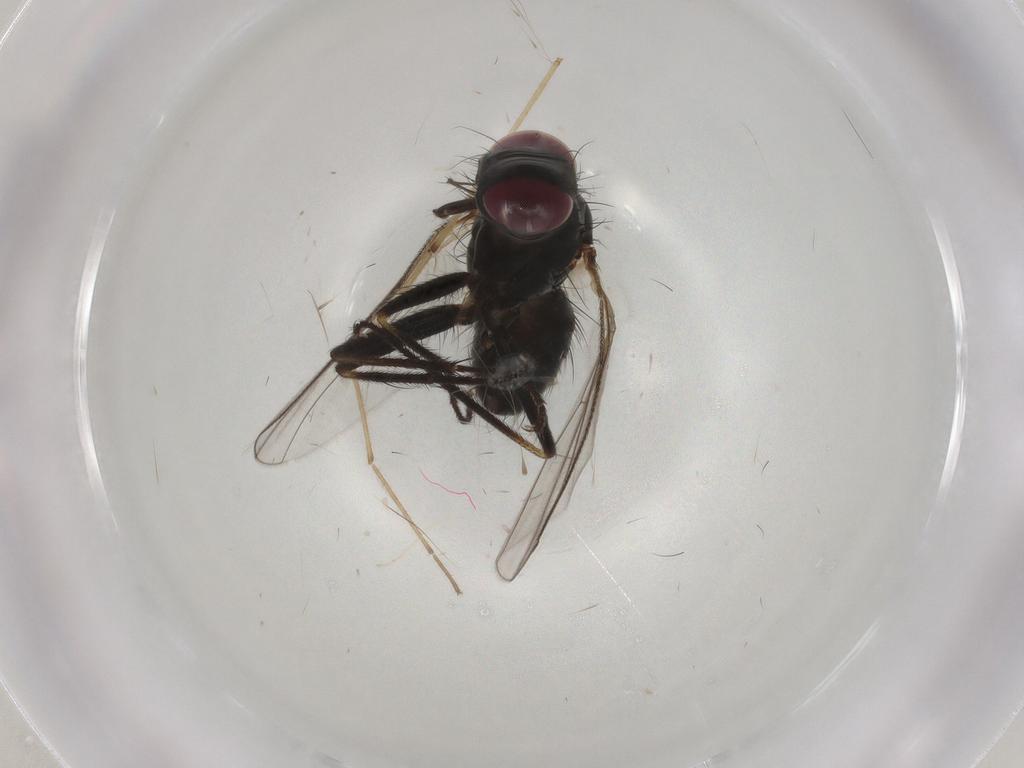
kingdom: Animalia
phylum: Arthropoda
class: Insecta
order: Diptera
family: Muscidae
